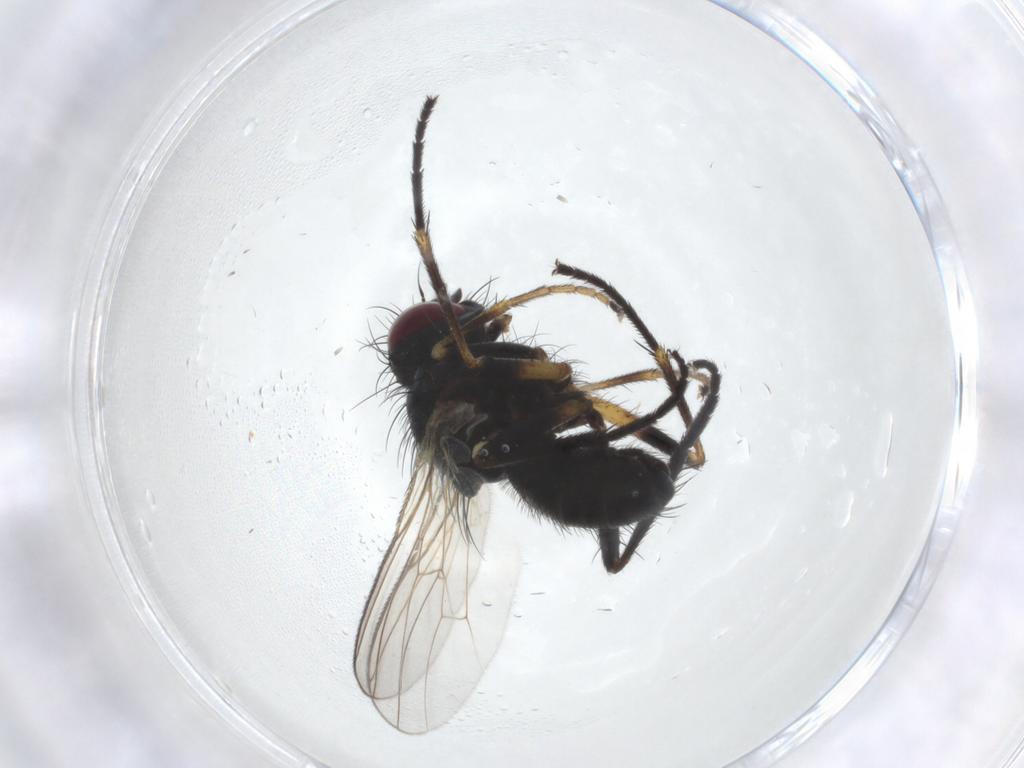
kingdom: Animalia
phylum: Arthropoda
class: Insecta
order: Diptera
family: Muscidae
